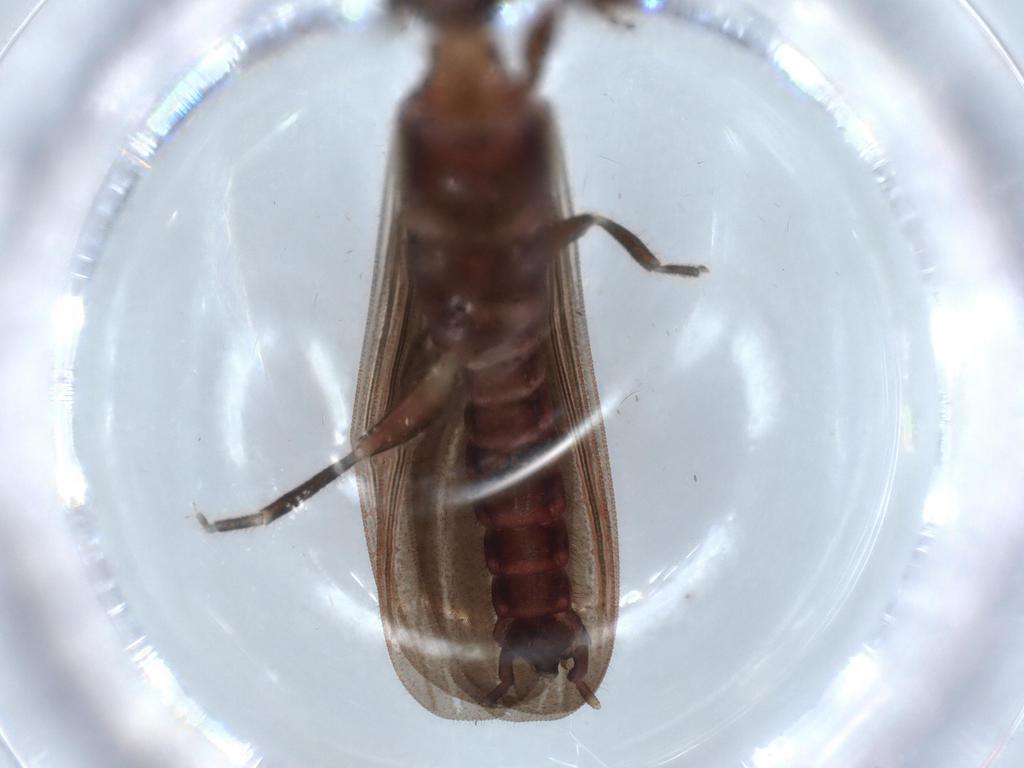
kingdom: Animalia
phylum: Arthropoda
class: Insecta
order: Embioptera
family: Anisembiidae
